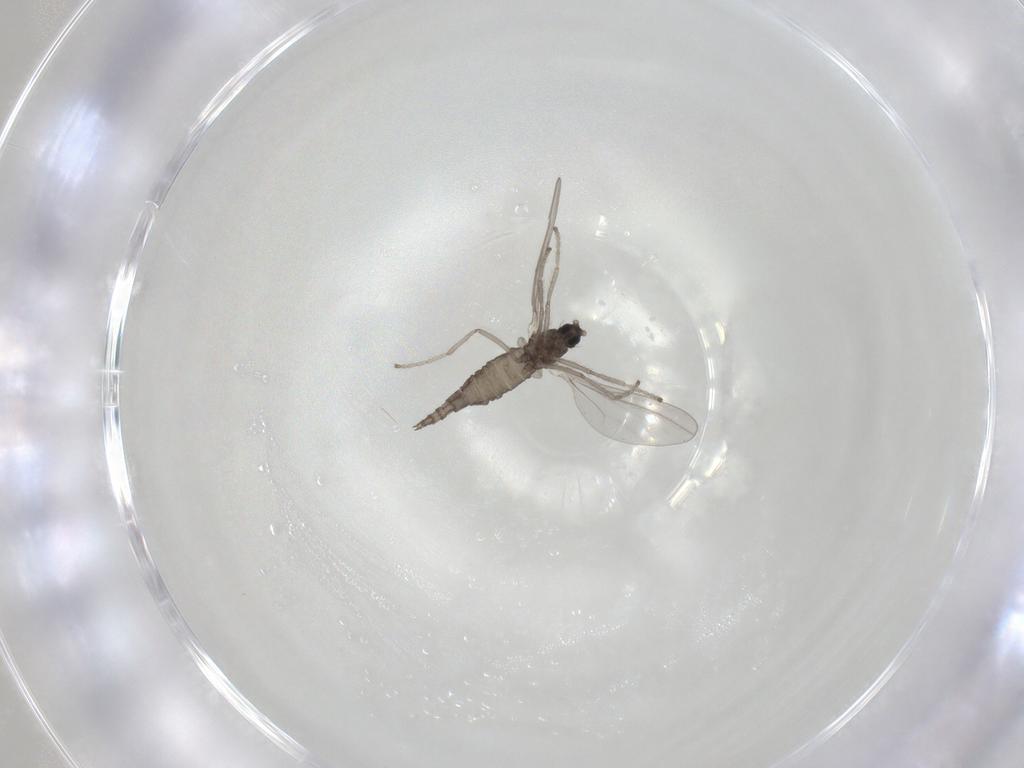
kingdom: Animalia
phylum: Arthropoda
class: Insecta
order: Diptera
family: Cecidomyiidae
